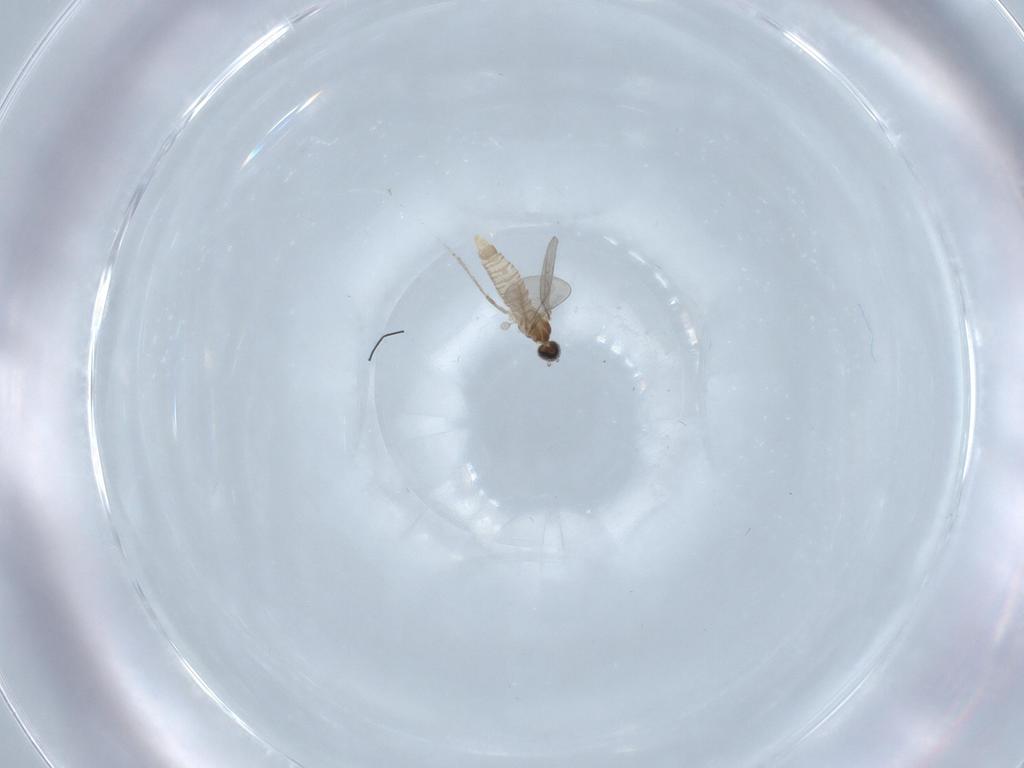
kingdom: Animalia
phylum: Arthropoda
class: Insecta
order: Diptera
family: Cecidomyiidae
